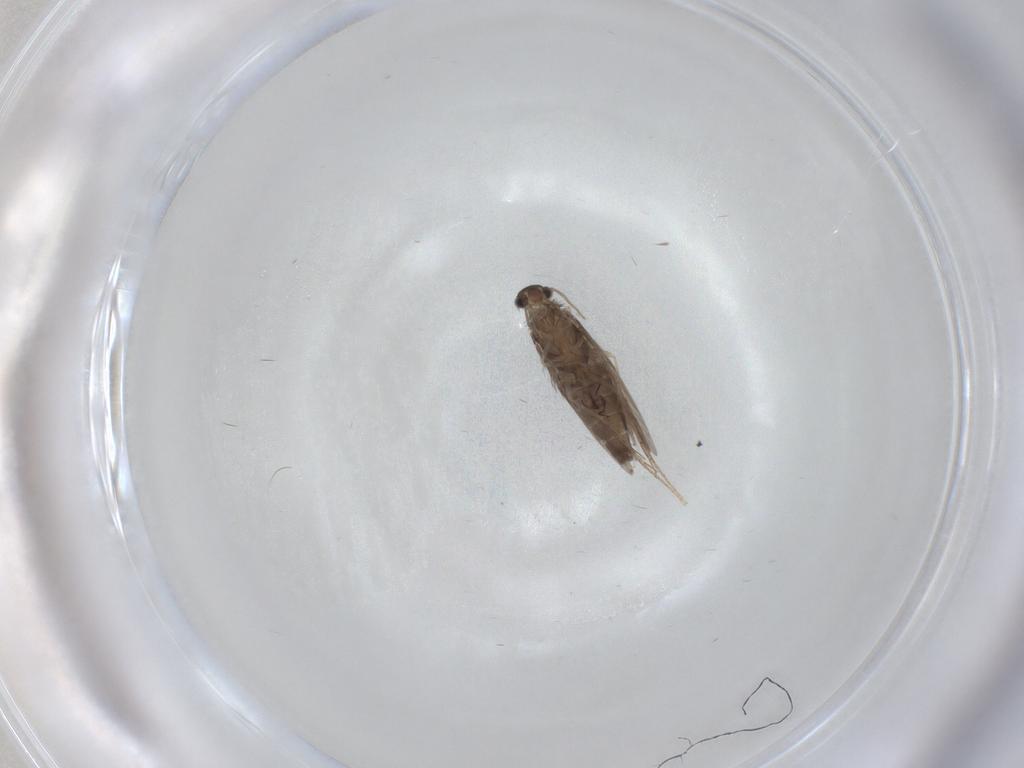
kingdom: Animalia
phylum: Arthropoda
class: Insecta
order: Trichoptera
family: Hydroptilidae
